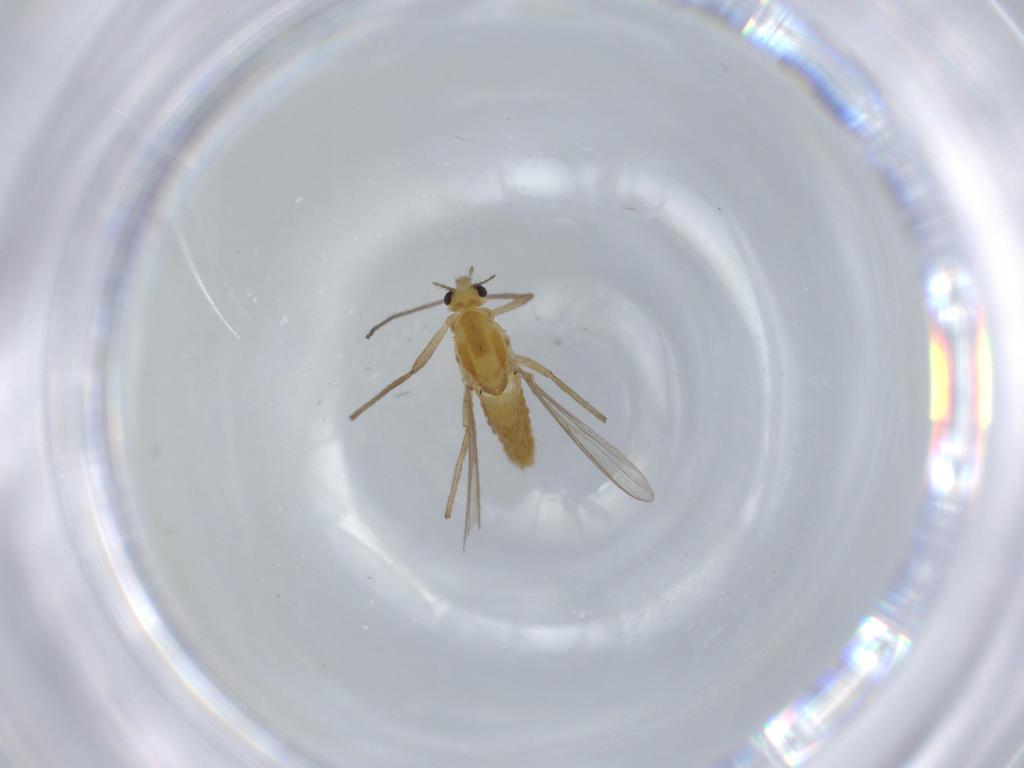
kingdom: Animalia
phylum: Arthropoda
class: Insecta
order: Diptera
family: Chironomidae
